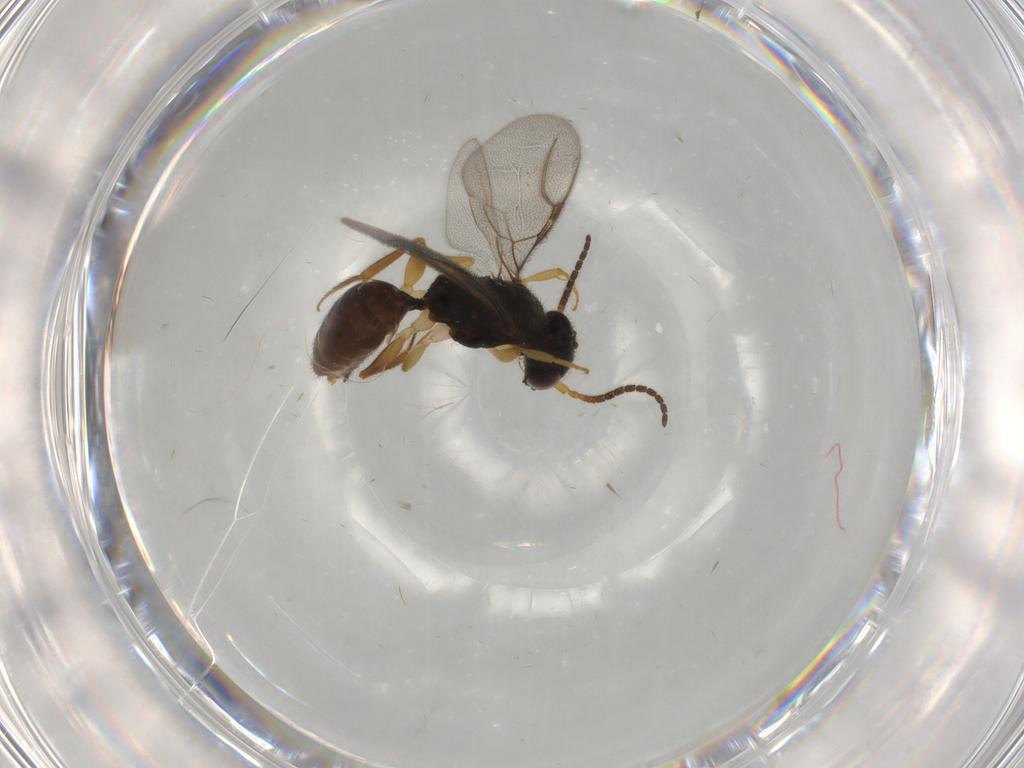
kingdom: Animalia
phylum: Arthropoda
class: Insecta
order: Hymenoptera
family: Bethylidae
